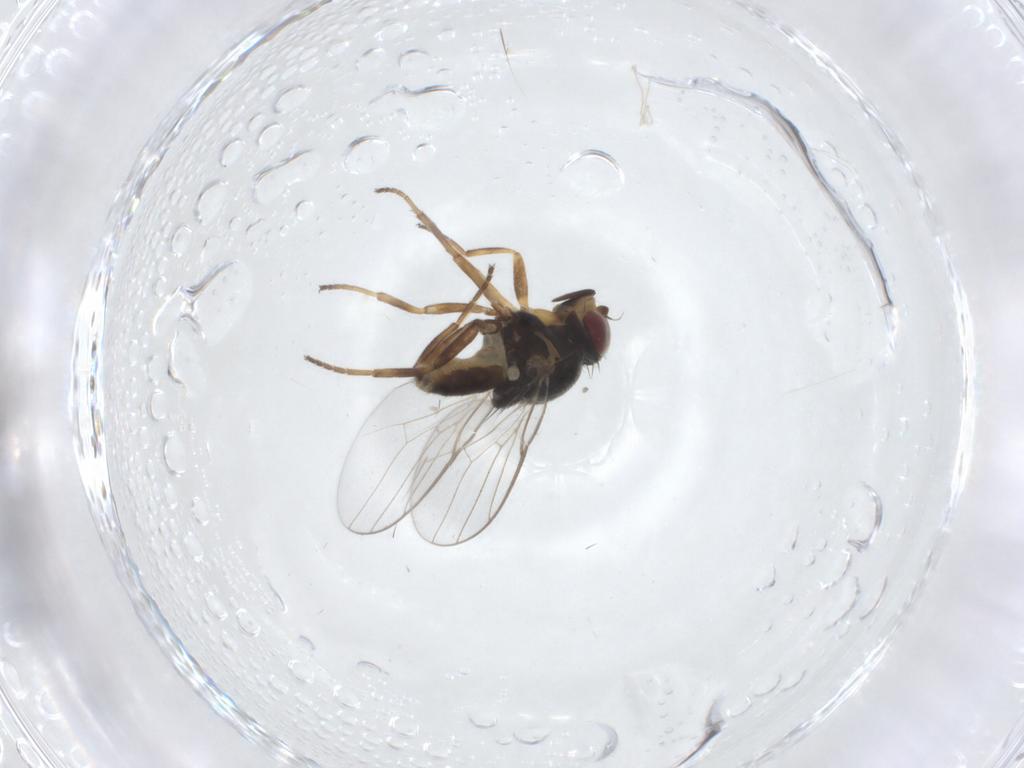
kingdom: Animalia
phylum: Arthropoda
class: Insecta
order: Diptera
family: Chloropidae
